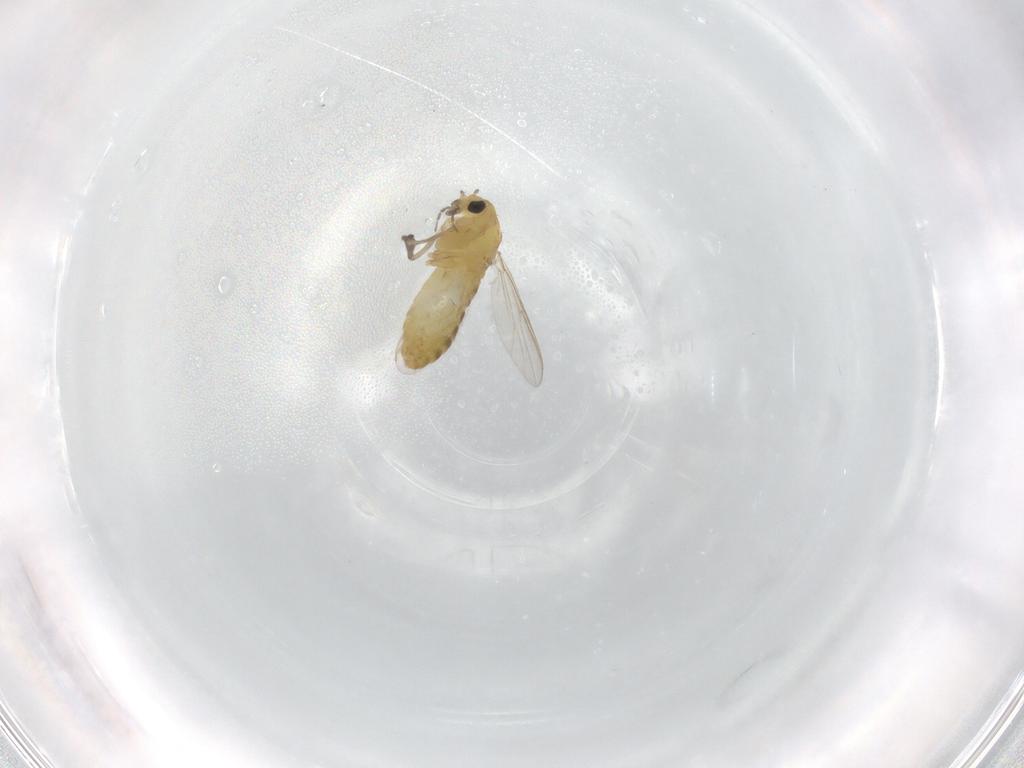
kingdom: Animalia
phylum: Arthropoda
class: Insecta
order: Diptera
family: Chironomidae
